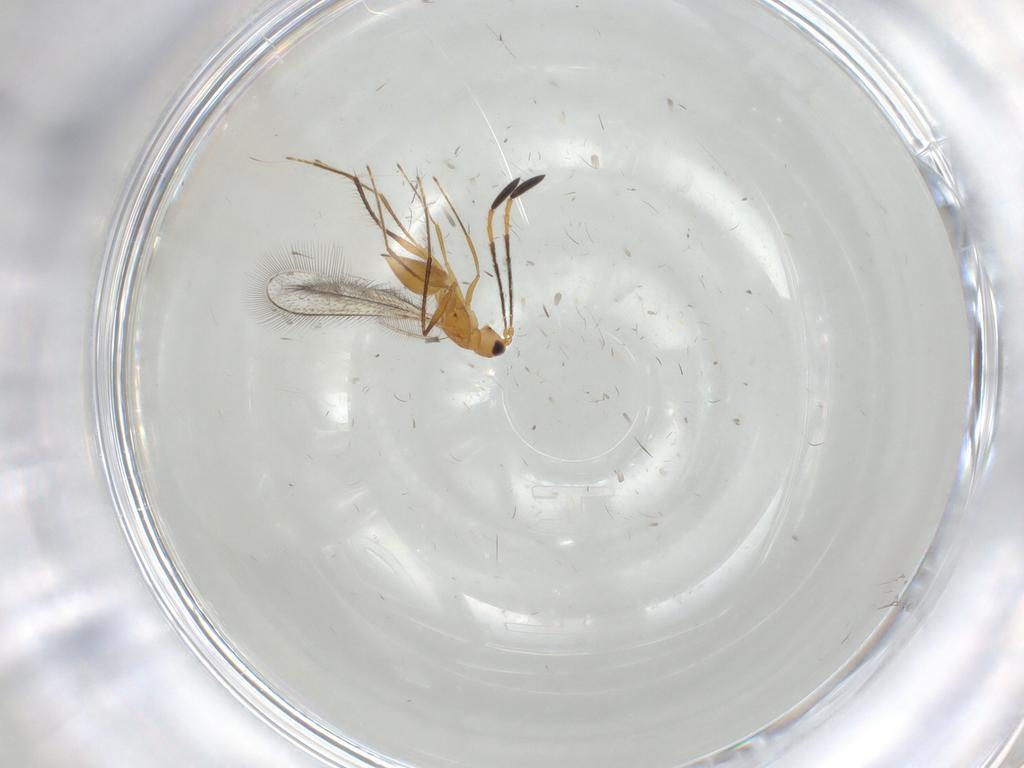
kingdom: Animalia
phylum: Arthropoda
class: Insecta
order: Hymenoptera
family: Mymaridae
